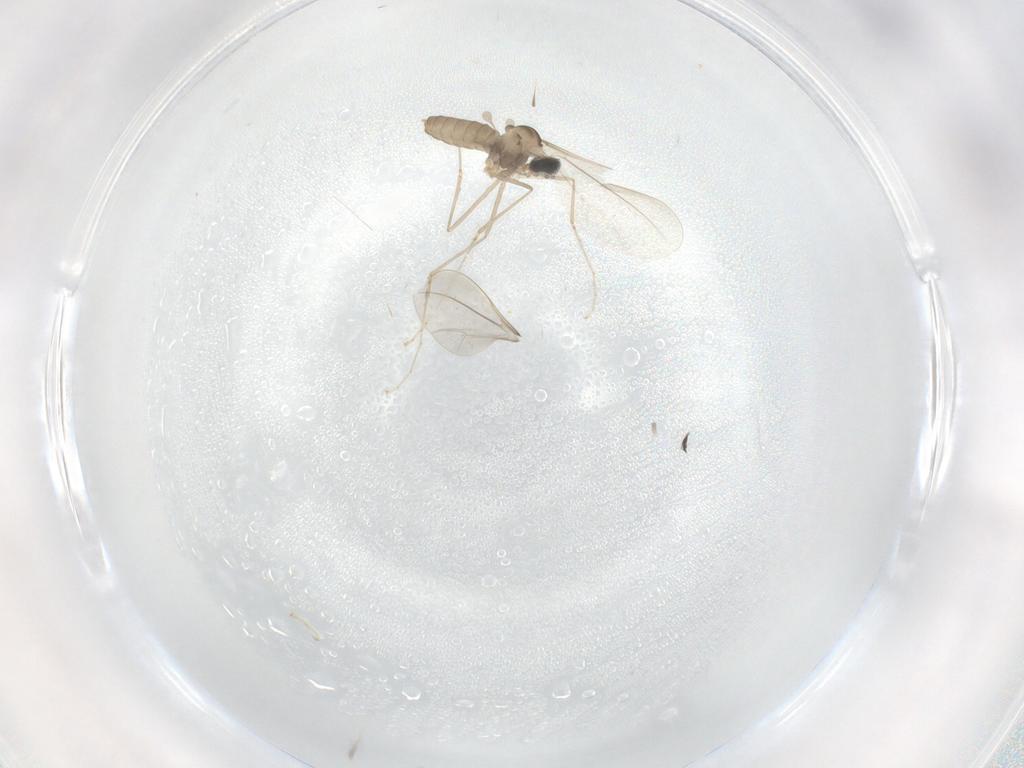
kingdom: Animalia
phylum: Arthropoda
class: Insecta
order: Diptera
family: Cecidomyiidae
